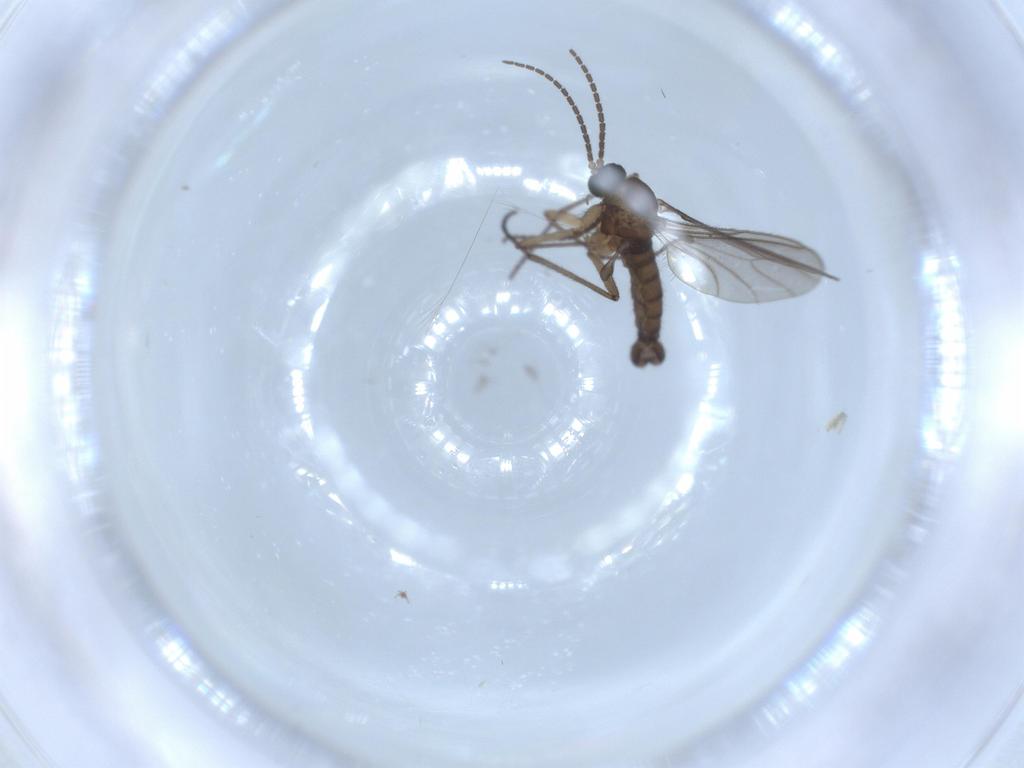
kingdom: Animalia
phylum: Arthropoda
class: Insecta
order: Diptera
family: Sciaridae
